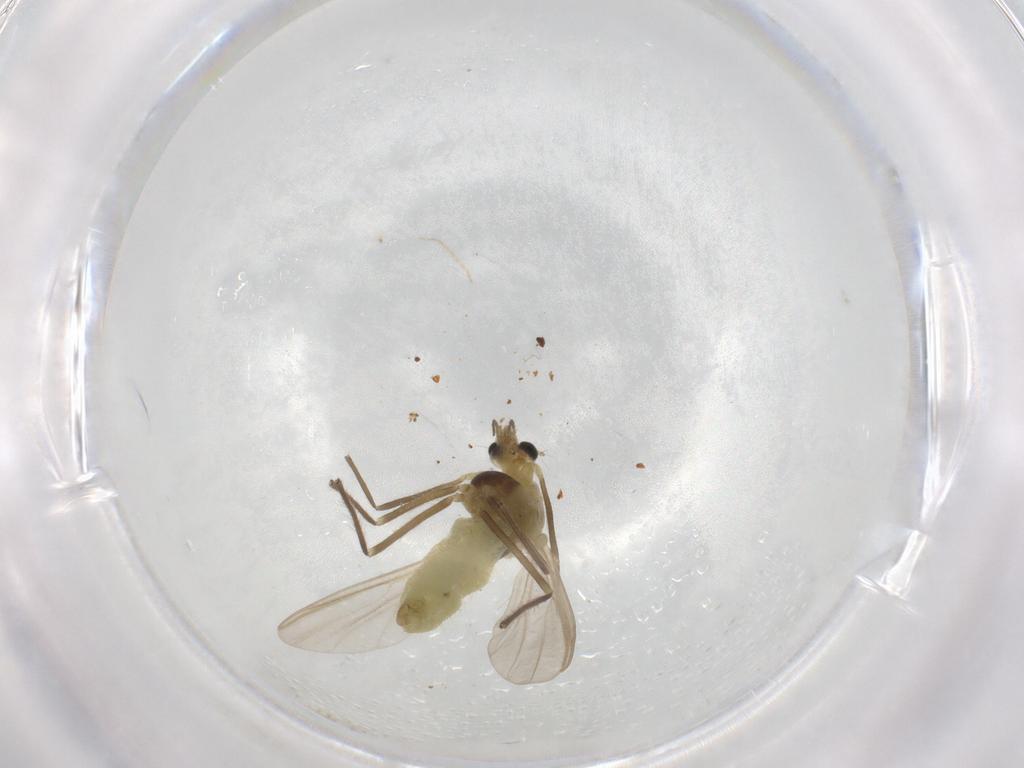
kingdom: Animalia
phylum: Arthropoda
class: Insecta
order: Diptera
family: Chironomidae
